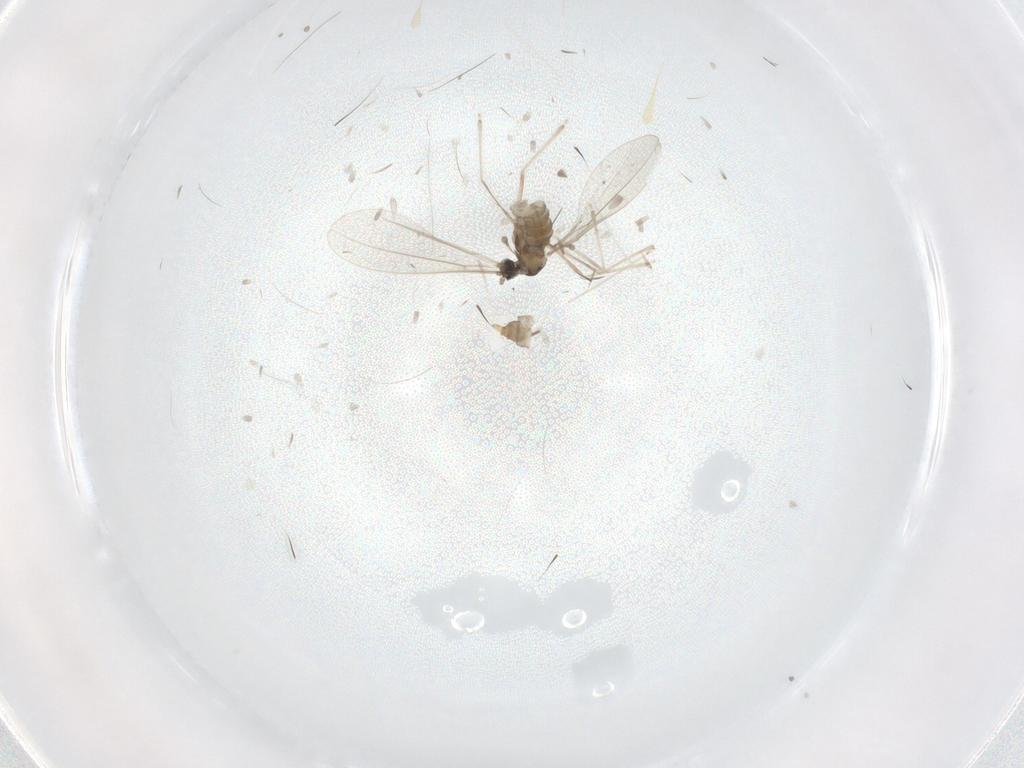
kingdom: Animalia
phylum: Arthropoda
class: Insecta
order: Diptera
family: Cecidomyiidae
